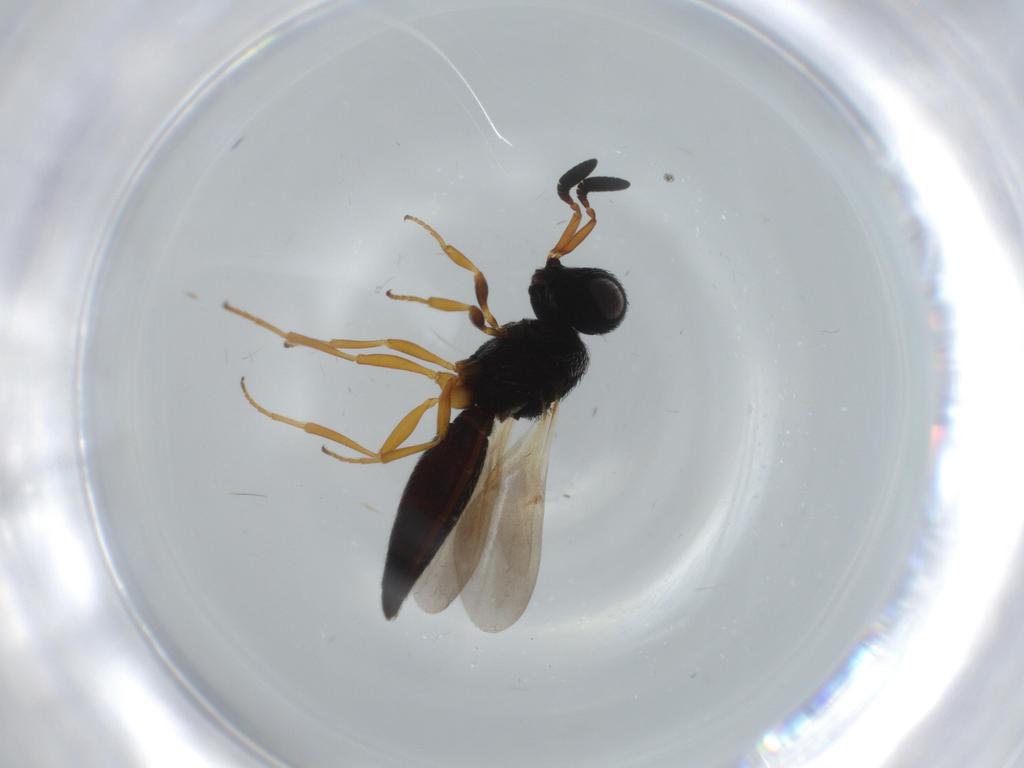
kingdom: Animalia
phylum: Arthropoda
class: Insecta
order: Hymenoptera
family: Scelionidae
